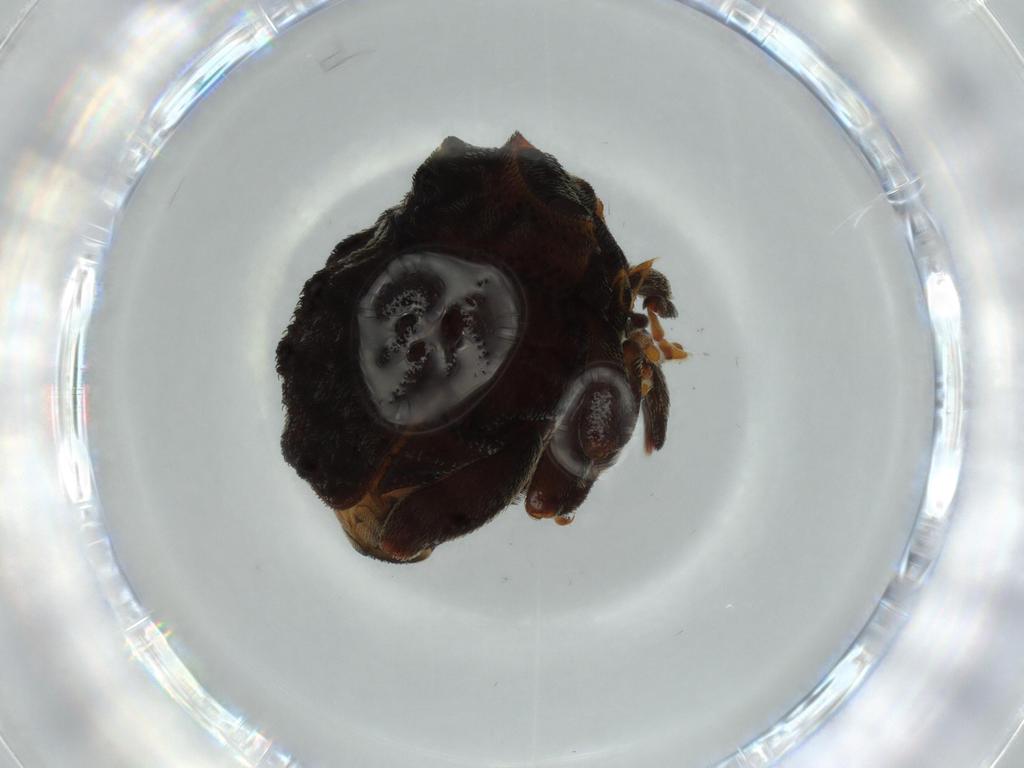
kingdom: Animalia
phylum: Arthropoda
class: Insecta
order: Coleoptera
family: Curculionidae
